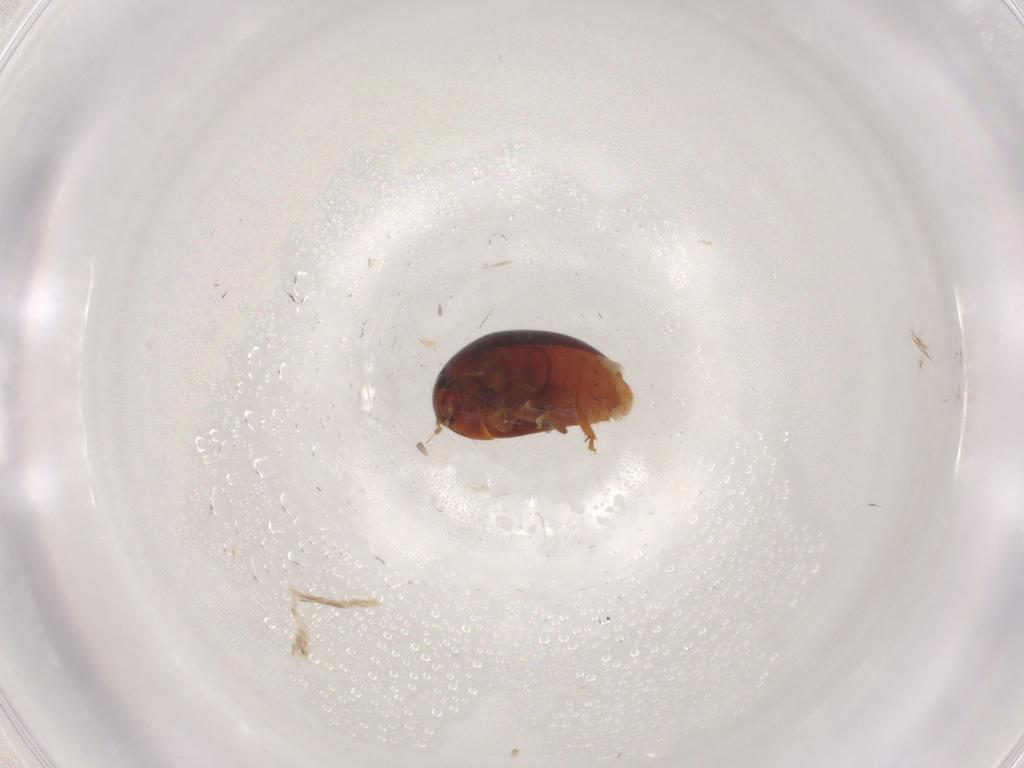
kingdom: Animalia
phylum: Arthropoda
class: Insecta
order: Coleoptera
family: Phalacridae
